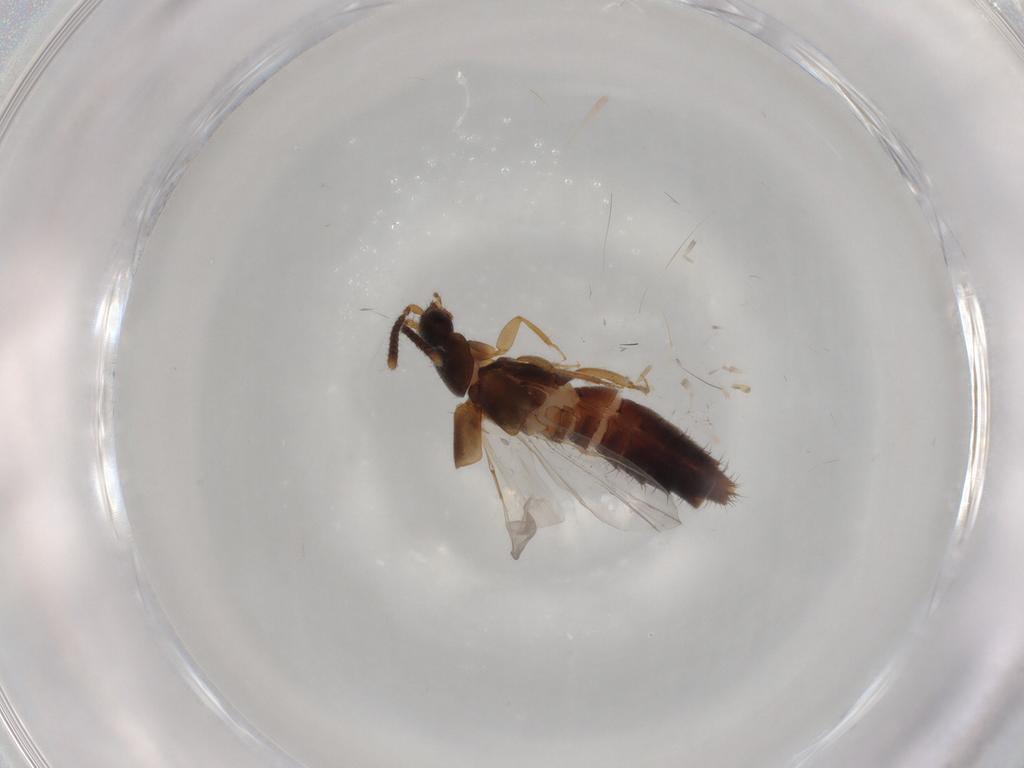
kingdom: Animalia
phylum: Arthropoda
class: Insecta
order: Coleoptera
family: Staphylinidae
